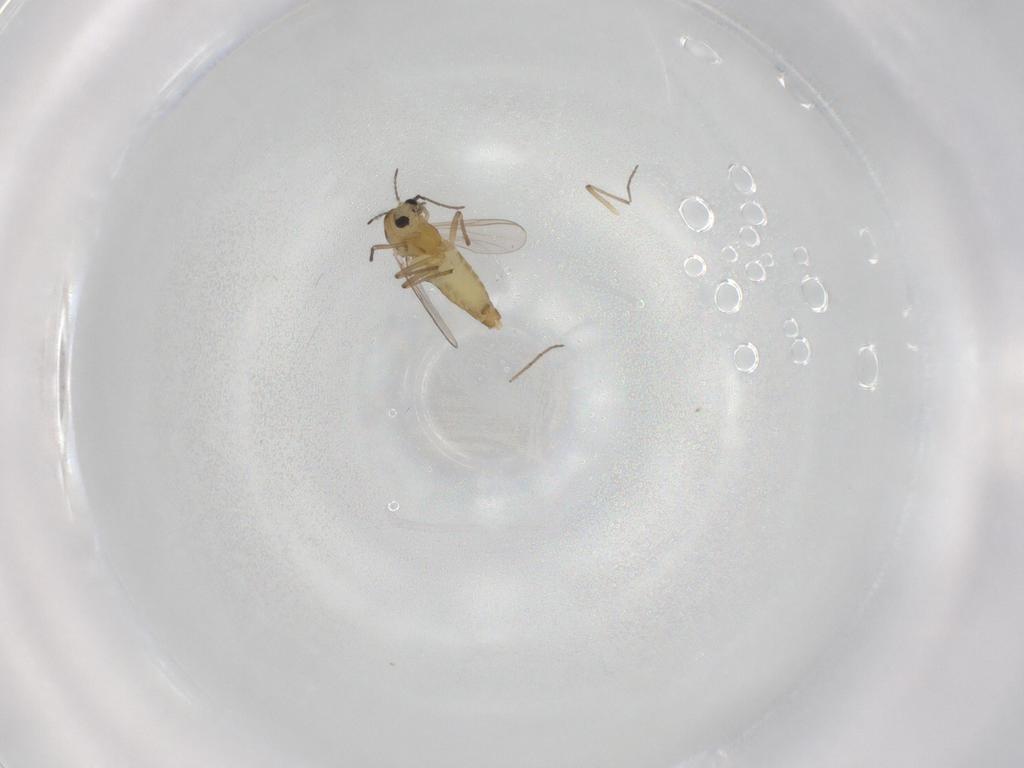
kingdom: Animalia
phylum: Arthropoda
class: Insecta
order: Diptera
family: Chironomidae
